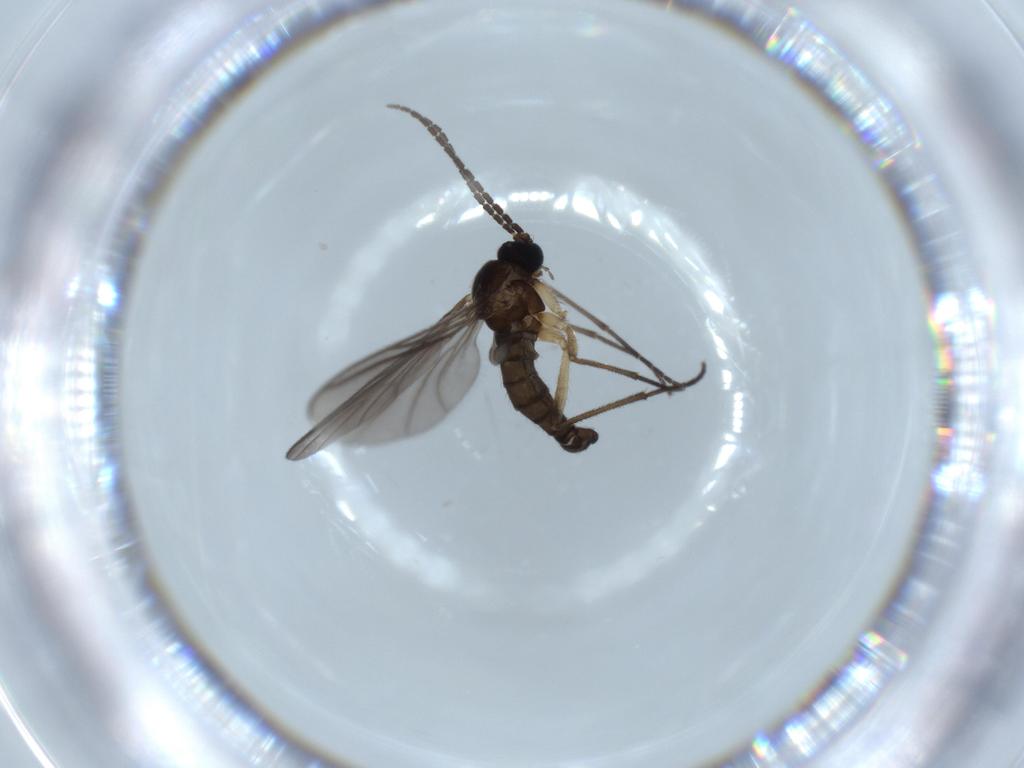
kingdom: Animalia
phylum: Arthropoda
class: Insecta
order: Diptera
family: Sciaridae
